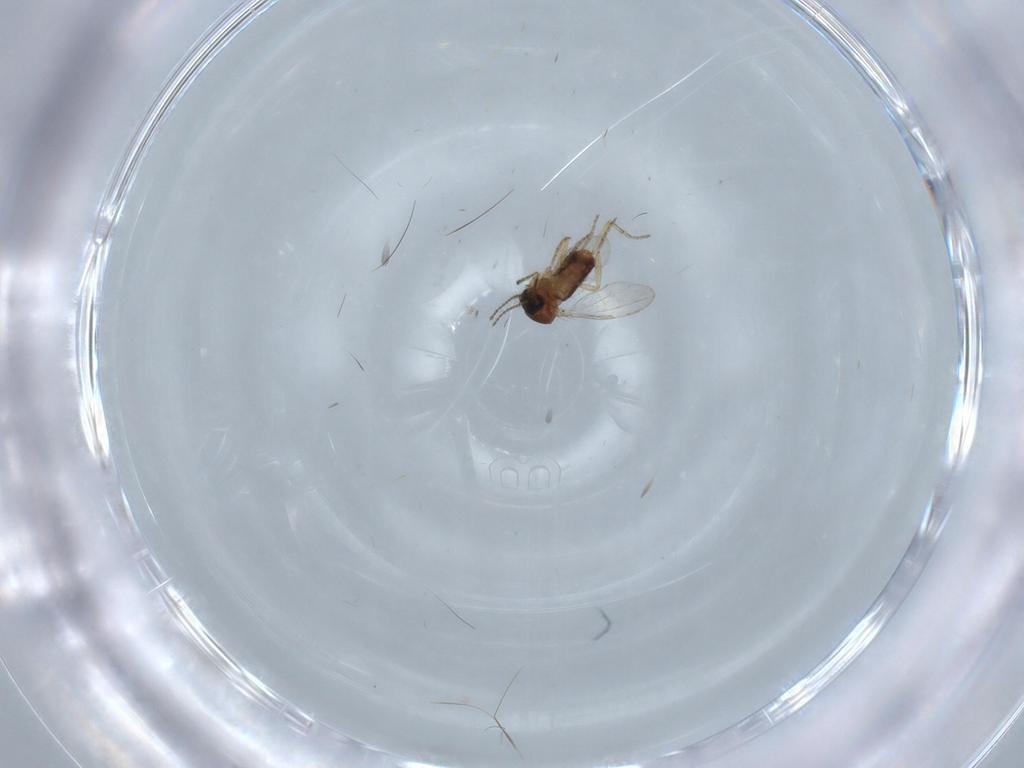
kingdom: Animalia
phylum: Arthropoda
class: Insecta
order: Diptera
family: Ceratopogonidae
